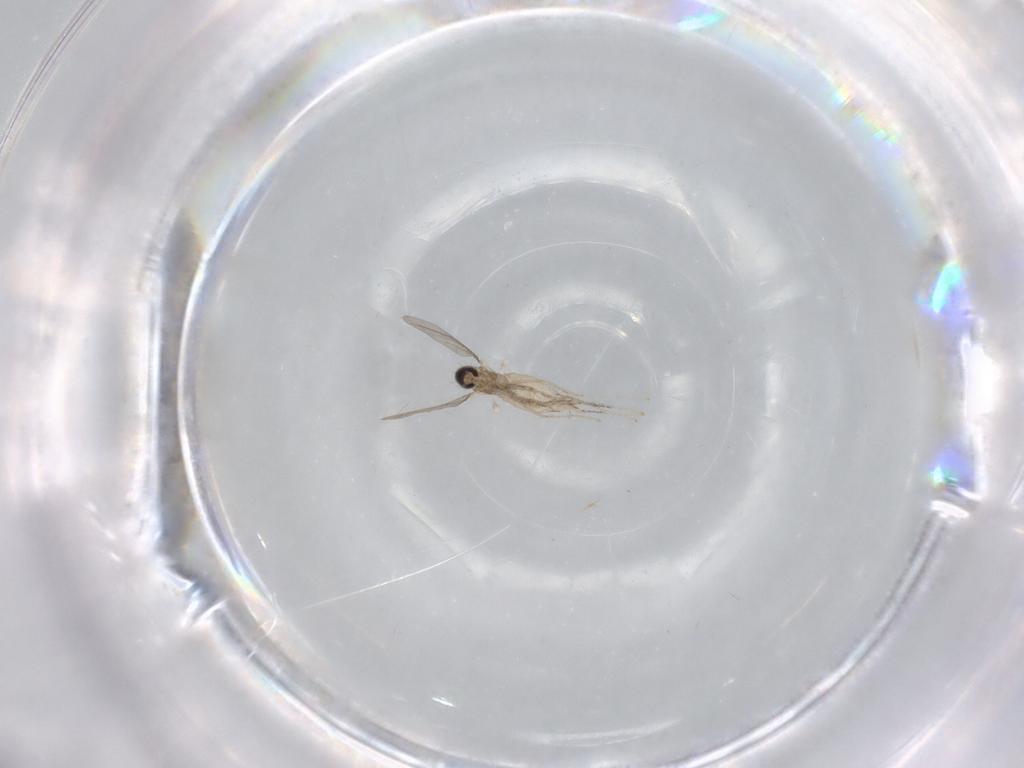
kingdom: Animalia
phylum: Arthropoda
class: Insecta
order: Diptera
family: Cecidomyiidae
